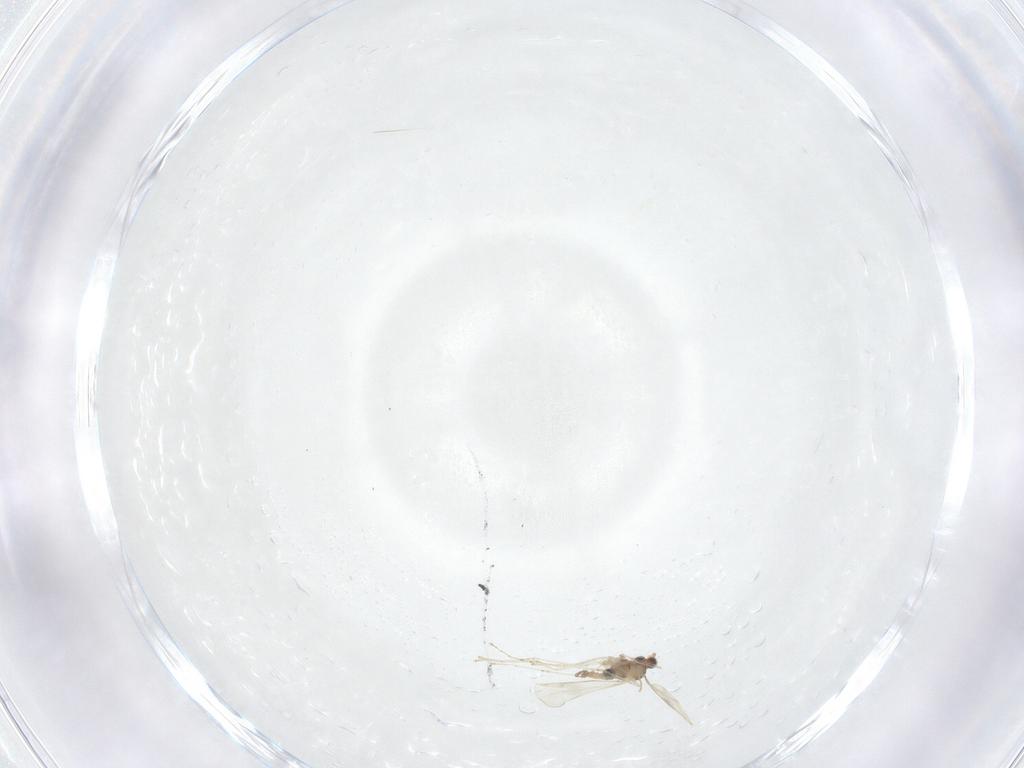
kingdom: Animalia
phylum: Arthropoda
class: Insecta
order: Diptera
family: Cecidomyiidae
